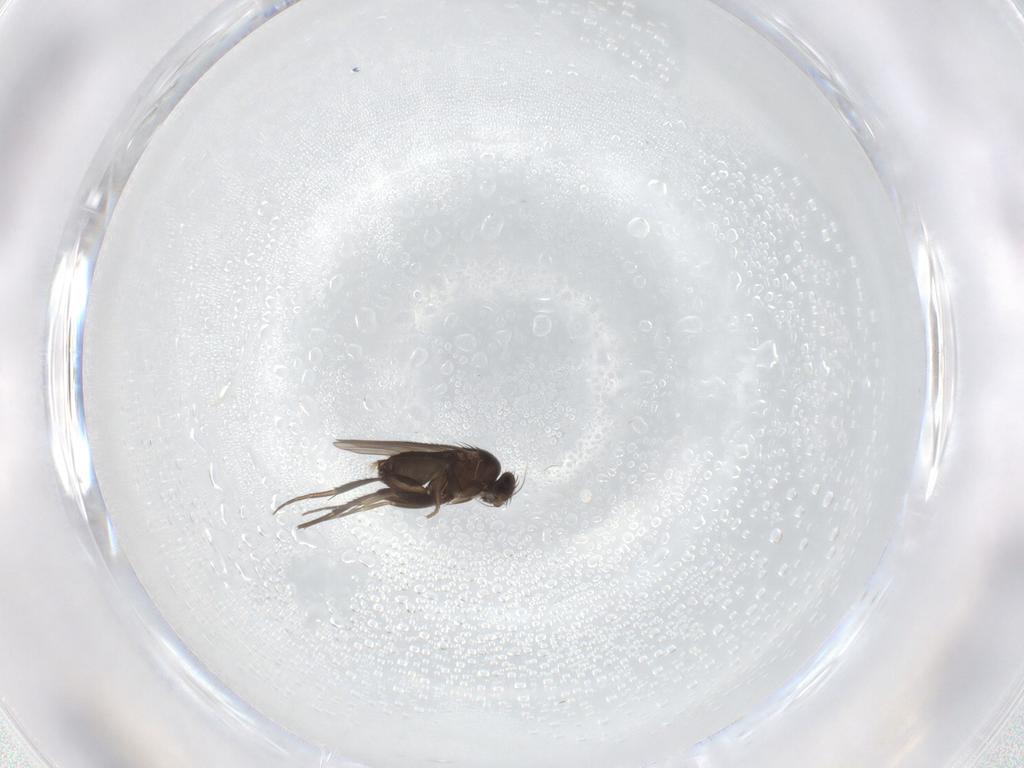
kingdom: Animalia
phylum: Arthropoda
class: Insecta
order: Diptera
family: Phoridae
